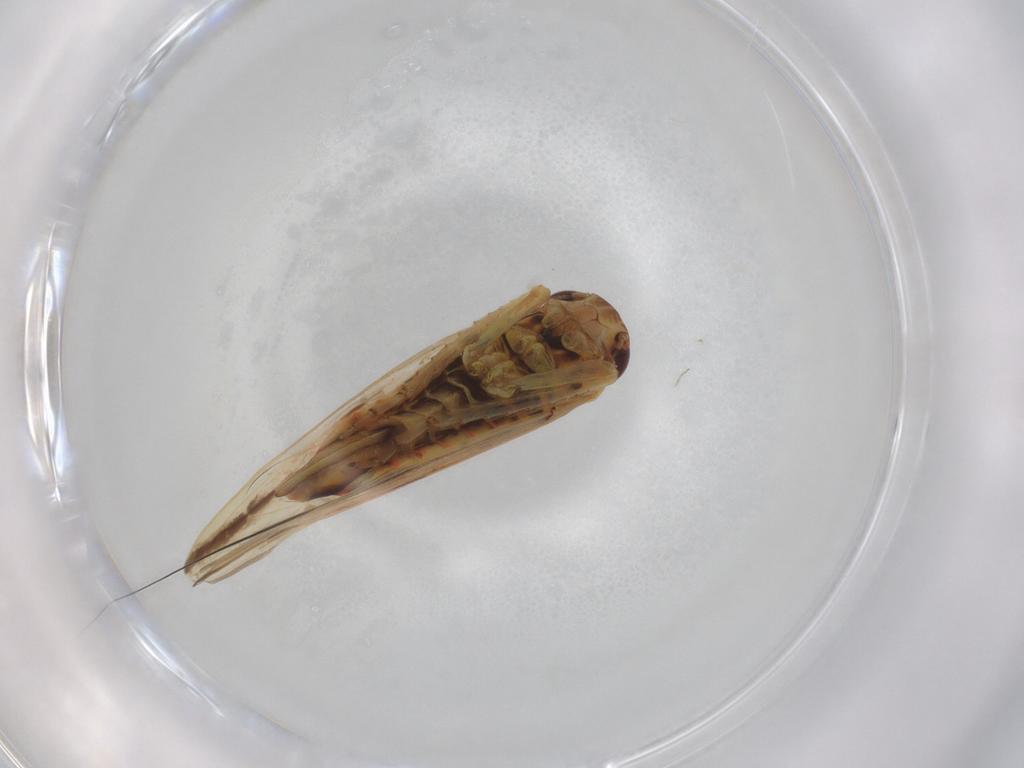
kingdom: Animalia
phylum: Arthropoda
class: Insecta
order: Hemiptera
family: Cicadellidae
